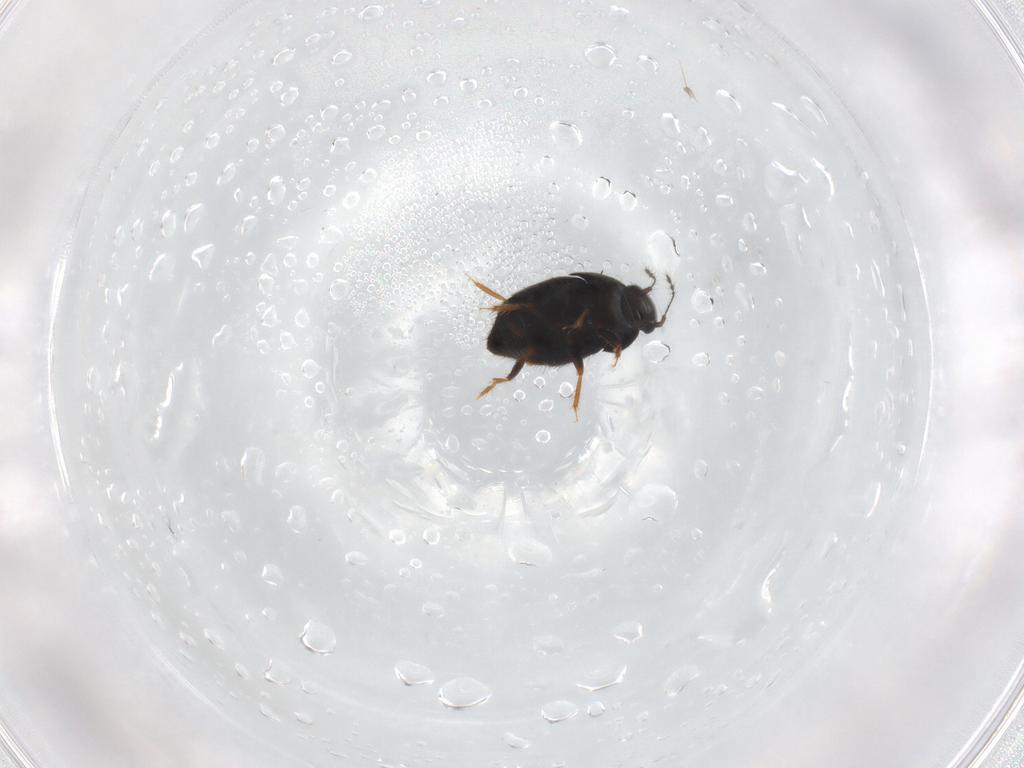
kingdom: Animalia
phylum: Arthropoda
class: Insecta
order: Coleoptera
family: Ptiliidae
